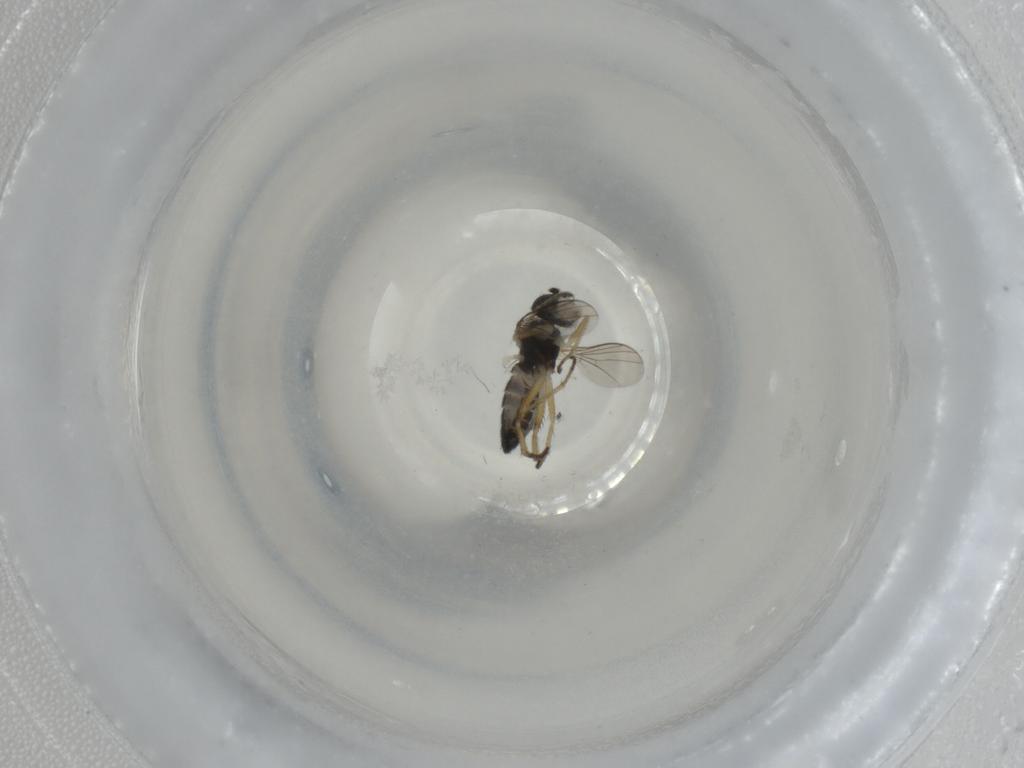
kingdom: Animalia
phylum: Arthropoda
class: Insecta
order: Diptera
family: Dolichopodidae
